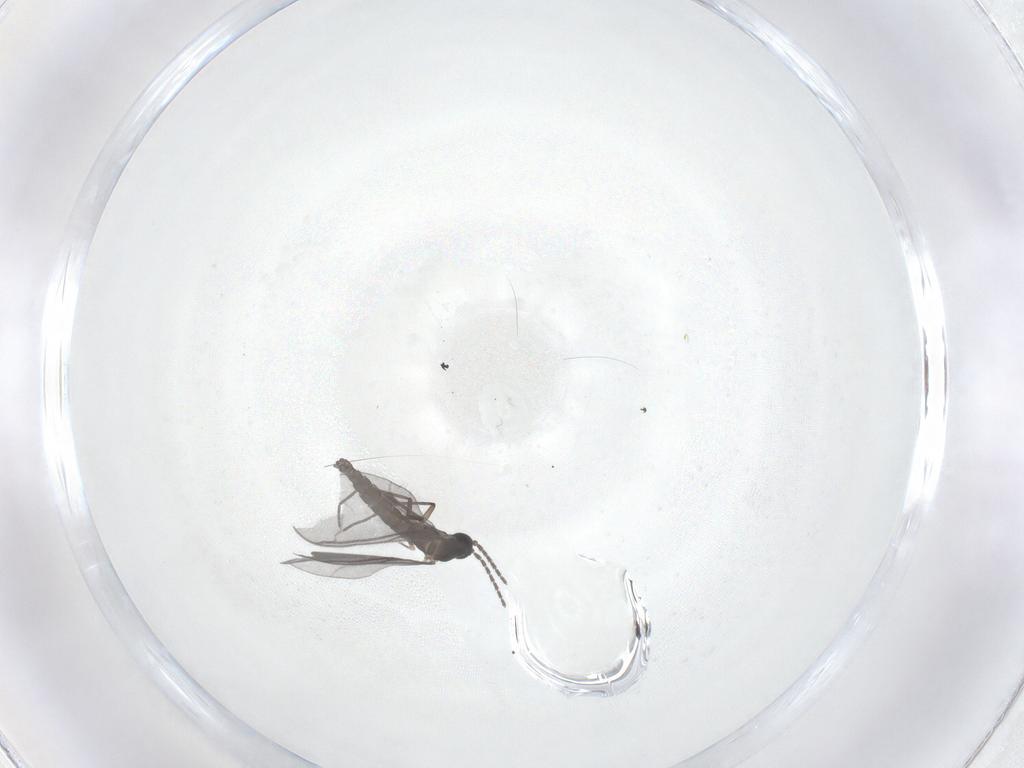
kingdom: Animalia
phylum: Arthropoda
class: Insecta
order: Diptera
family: Sciaridae
